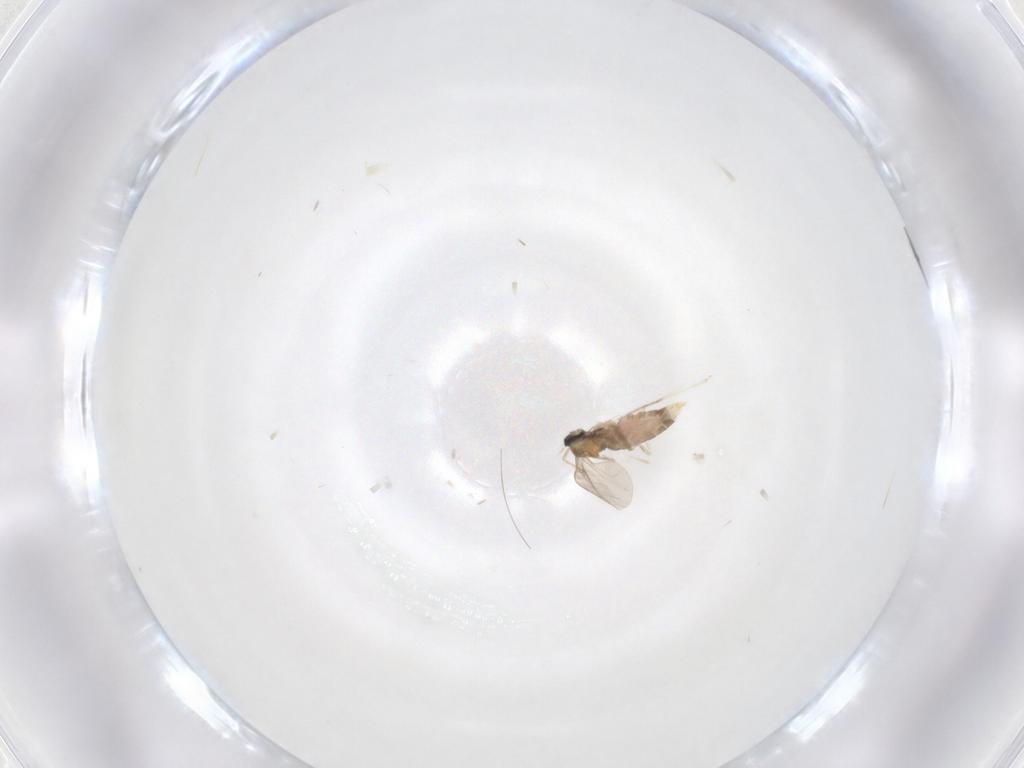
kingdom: Animalia
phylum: Arthropoda
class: Insecta
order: Diptera
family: Cecidomyiidae
